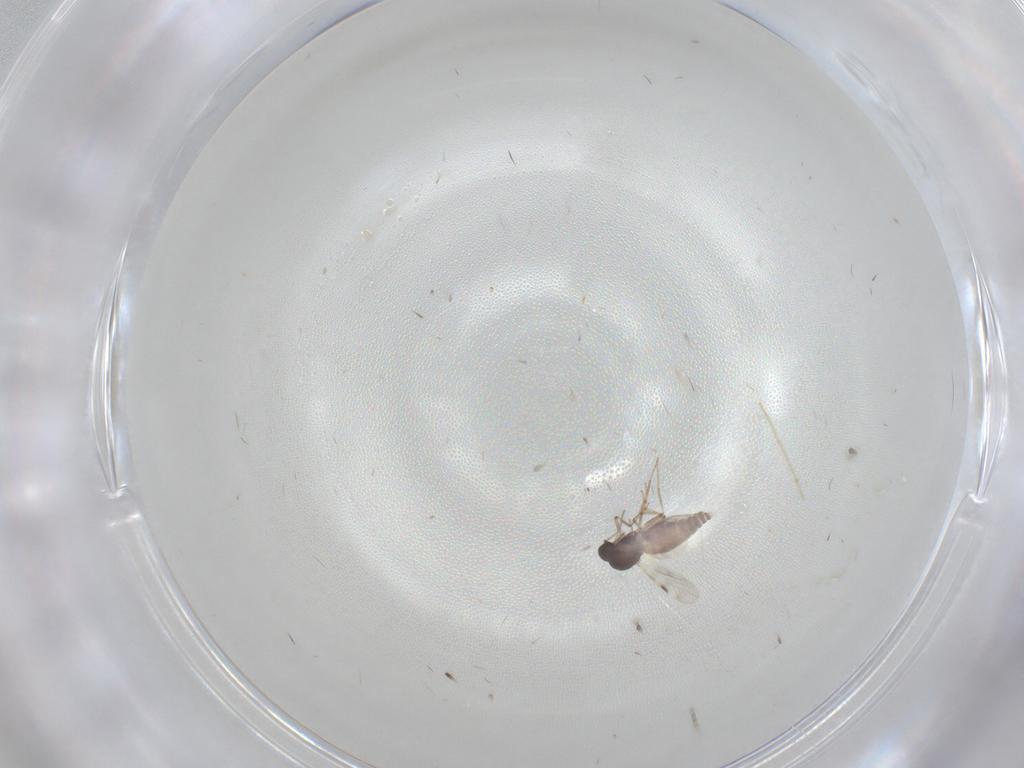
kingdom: Animalia
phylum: Arthropoda
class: Insecta
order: Diptera
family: Phoridae
